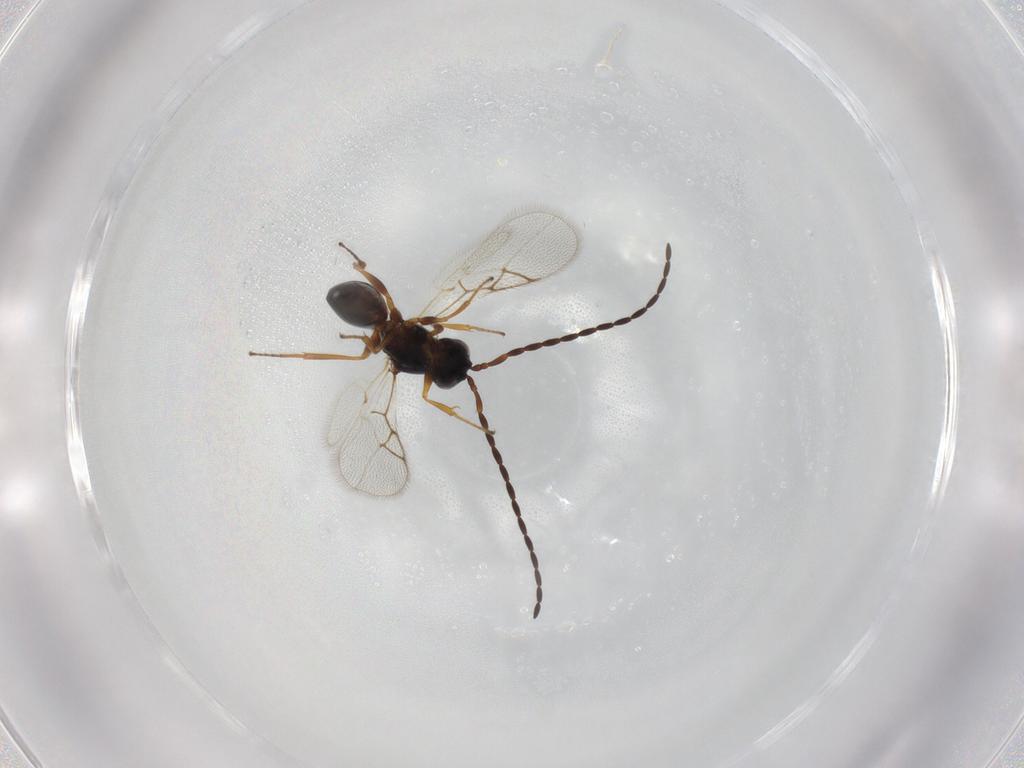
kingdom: Animalia
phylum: Arthropoda
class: Insecta
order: Hymenoptera
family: Figitidae
